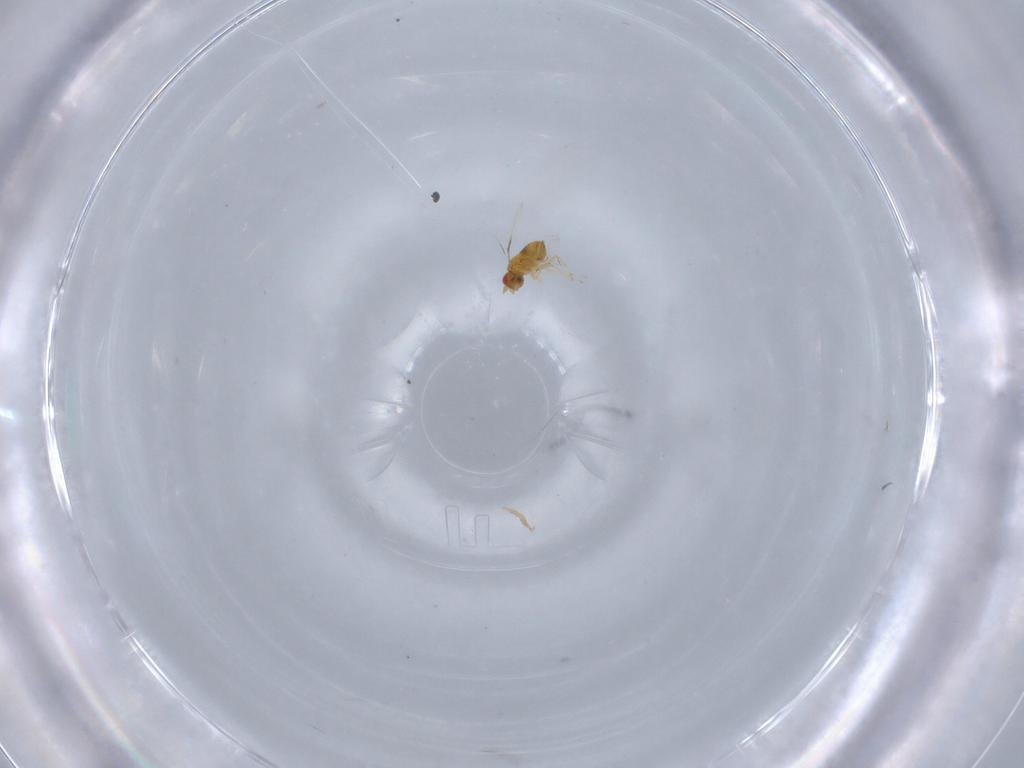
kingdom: Animalia
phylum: Arthropoda
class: Insecta
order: Hymenoptera
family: Trichogrammatidae
